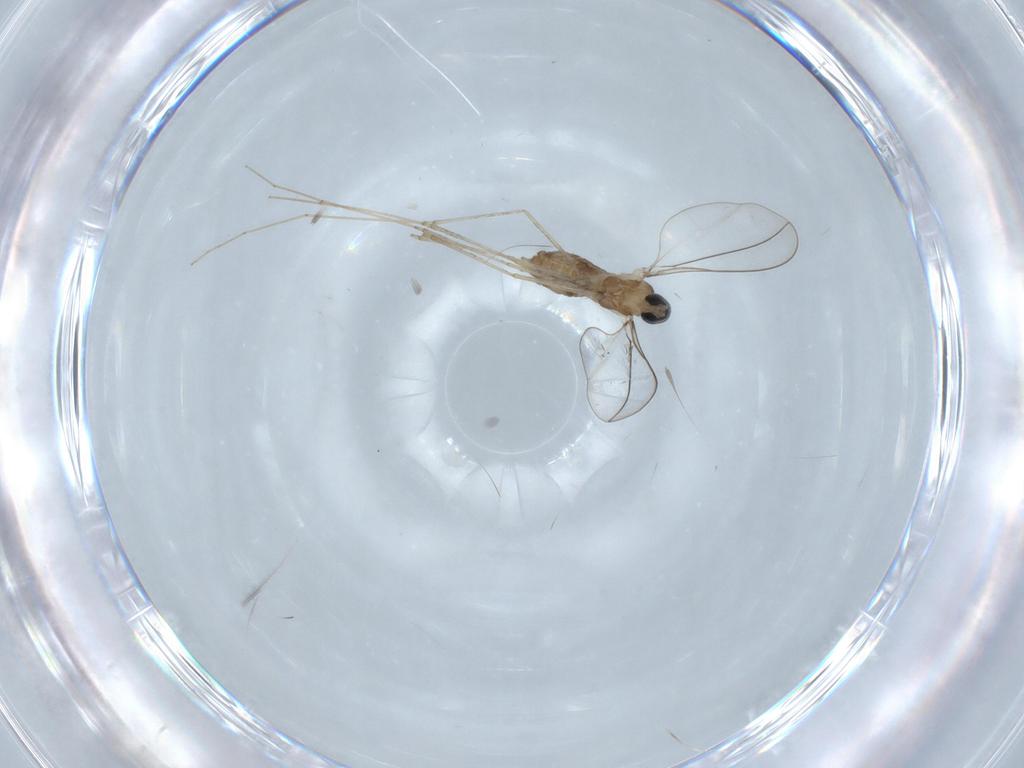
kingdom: Animalia
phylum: Arthropoda
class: Insecta
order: Diptera
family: Cecidomyiidae
